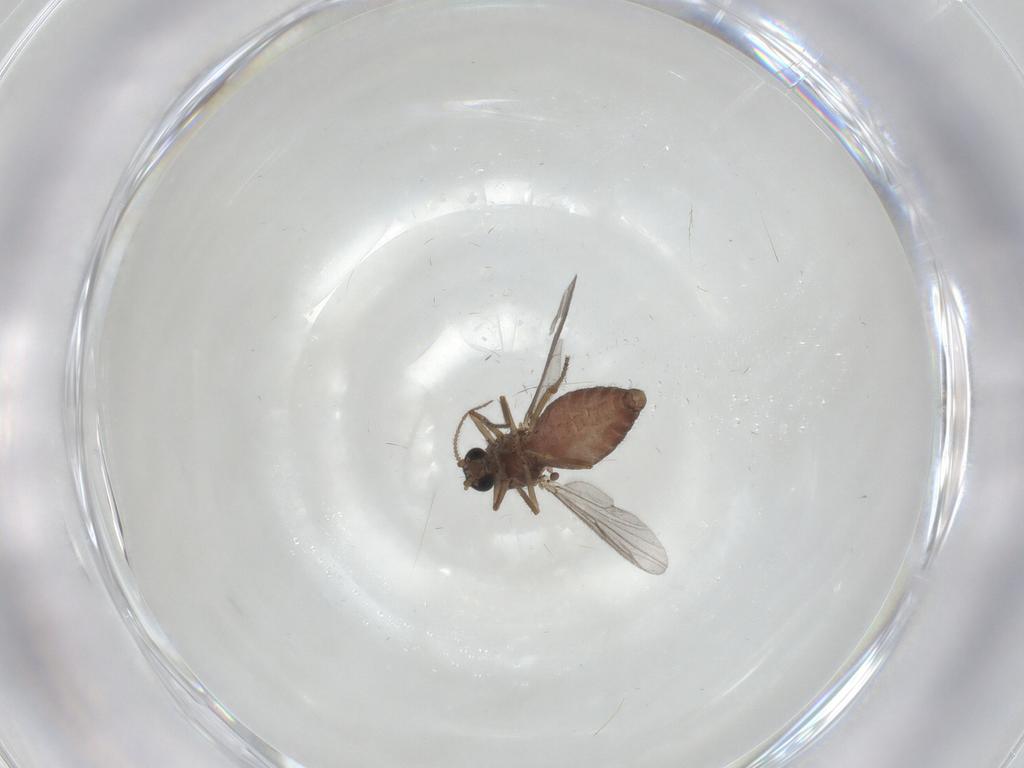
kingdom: Animalia
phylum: Arthropoda
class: Insecta
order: Diptera
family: Ceratopogonidae
